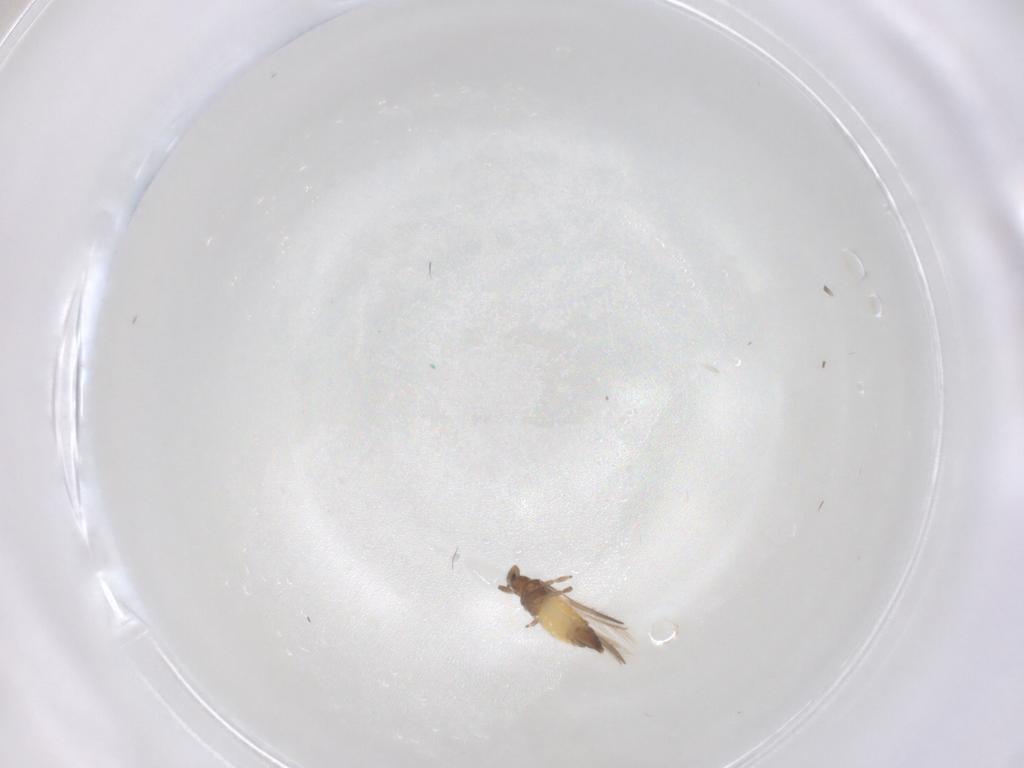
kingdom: Animalia
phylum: Arthropoda
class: Insecta
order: Thysanoptera
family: Thripidae
